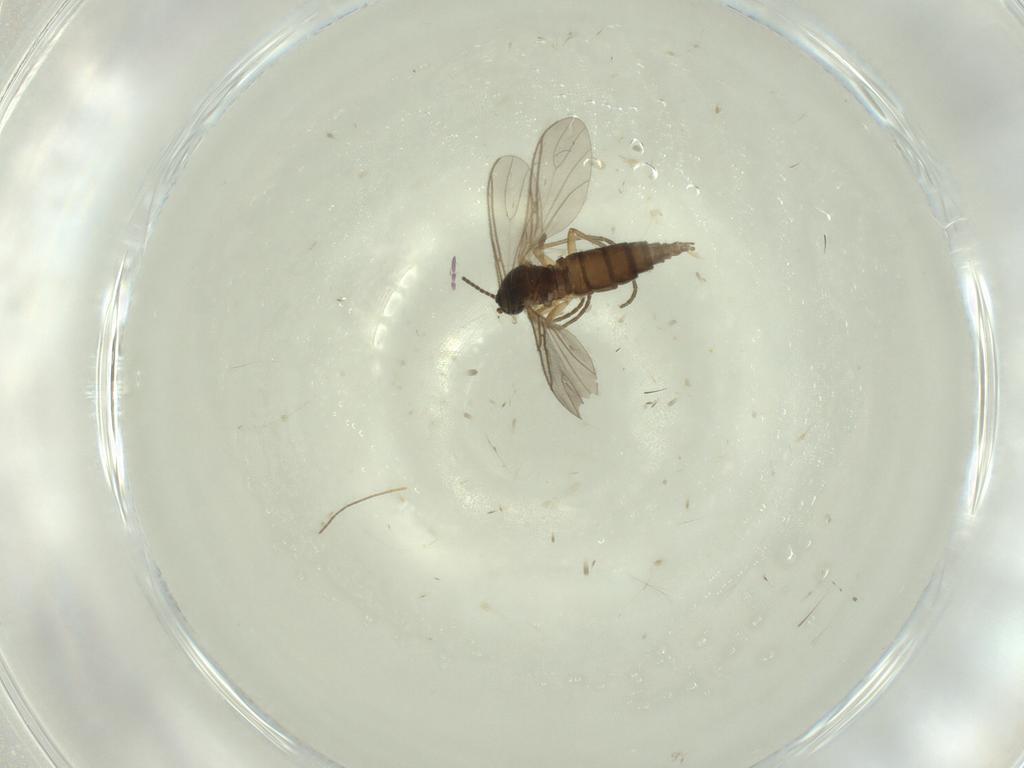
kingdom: Animalia
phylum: Arthropoda
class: Insecta
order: Diptera
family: Sciaridae
